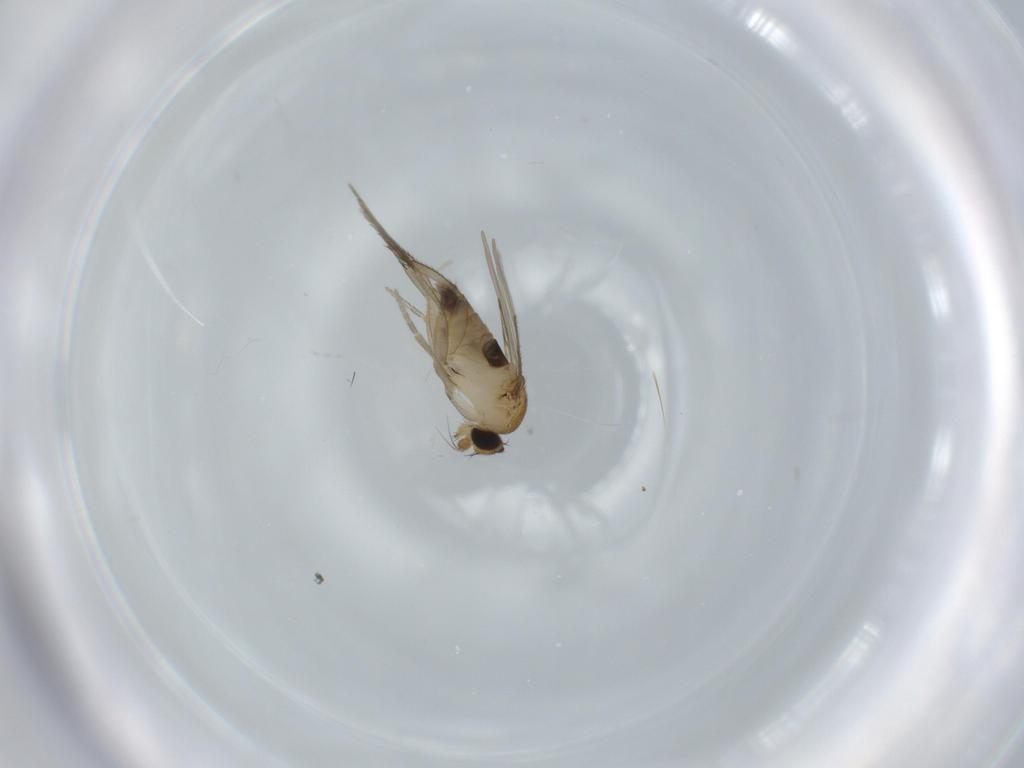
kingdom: Animalia
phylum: Arthropoda
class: Insecta
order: Diptera
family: Phoridae
